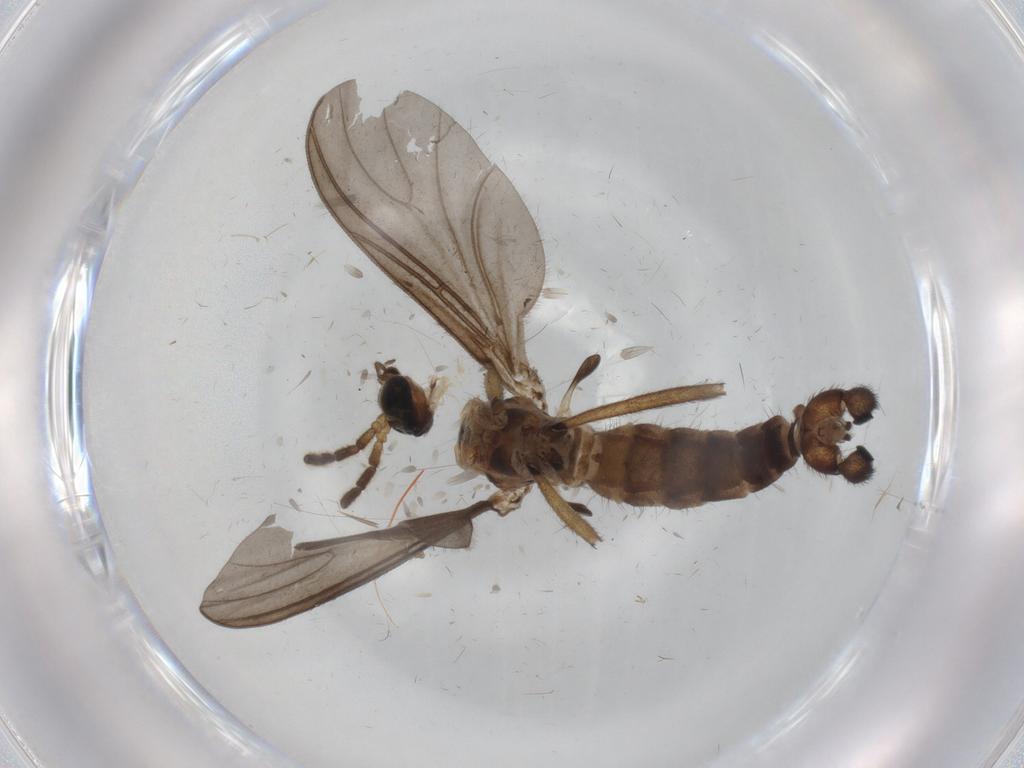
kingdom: Animalia
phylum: Arthropoda
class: Insecta
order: Diptera
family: Sciaridae
